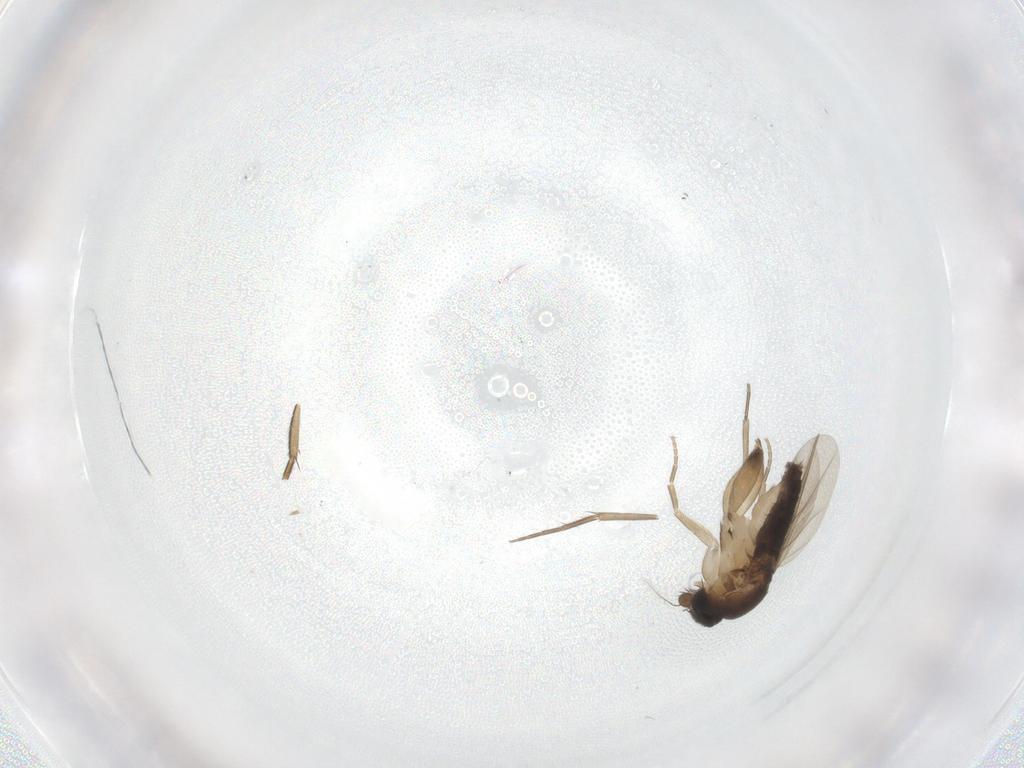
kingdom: Animalia
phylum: Arthropoda
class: Insecta
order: Diptera
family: Phoridae
